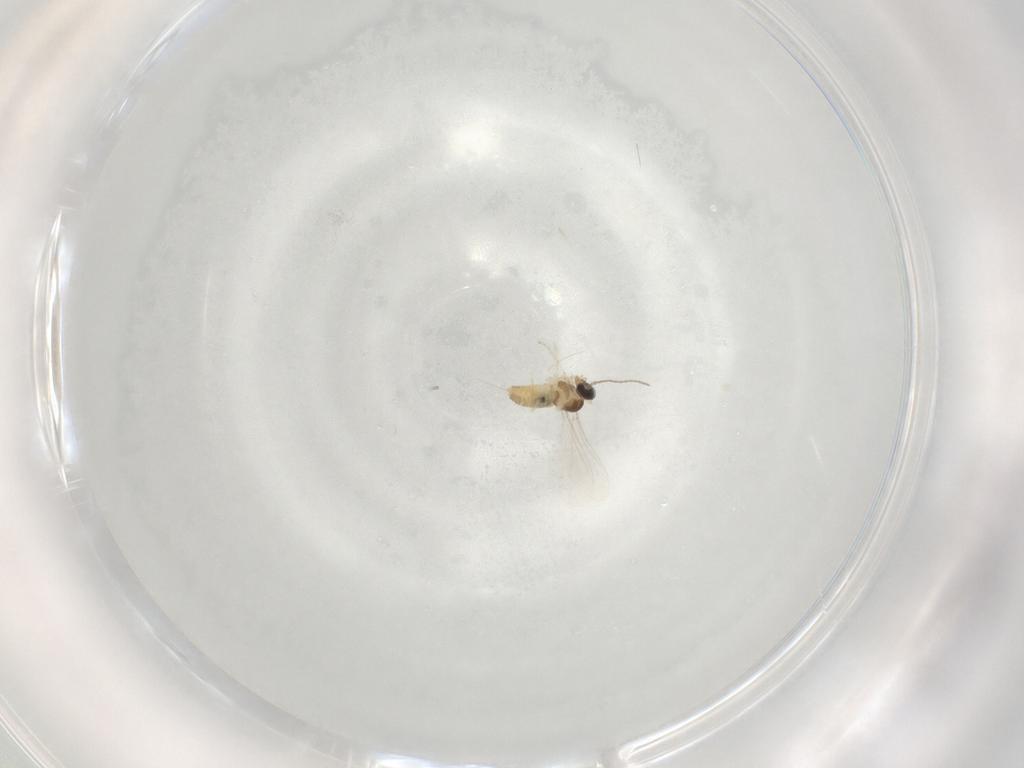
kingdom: Animalia
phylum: Arthropoda
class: Insecta
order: Diptera
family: Cecidomyiidae
